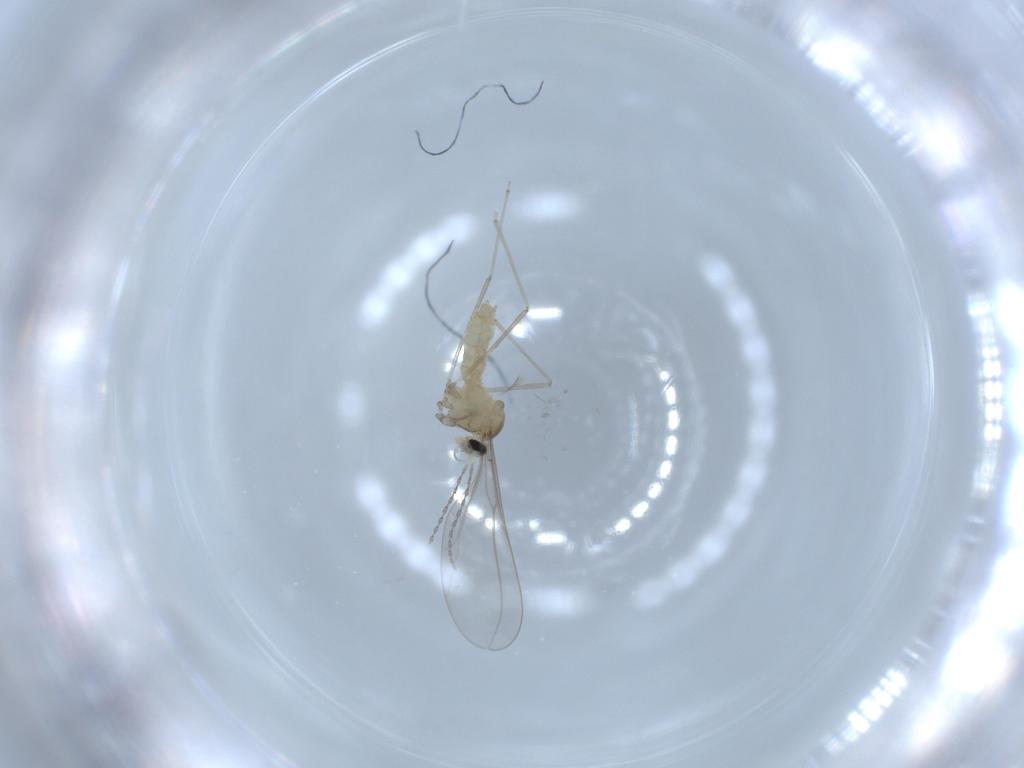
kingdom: Animalia
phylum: Arthropoda
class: Insecta
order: Diptera
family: Cecidomyiidae
